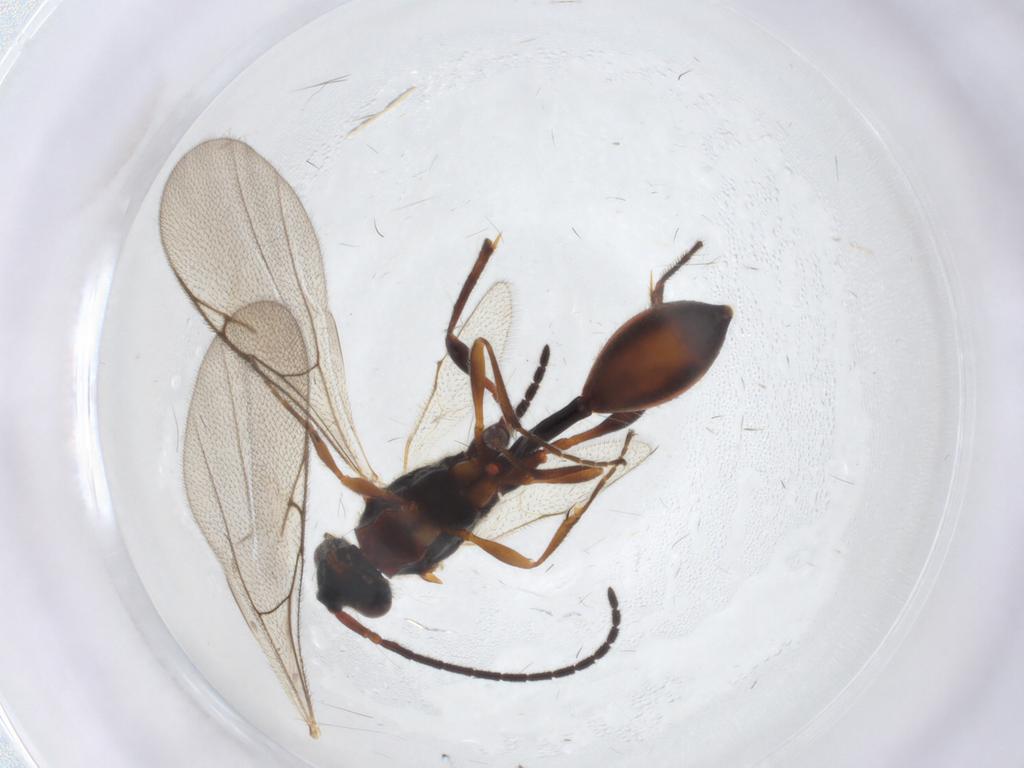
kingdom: Animalia
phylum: Arthropoda
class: Insecta
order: Hymenoptera
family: Diapriidae
